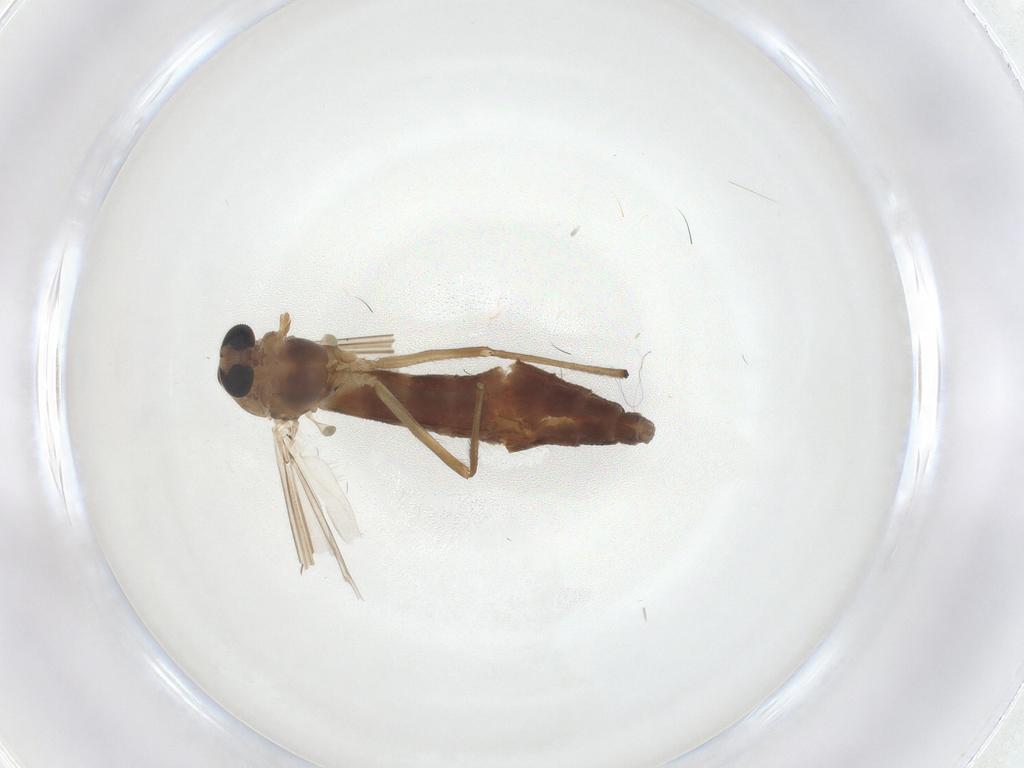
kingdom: Animalia
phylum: Arthropoda
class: Insecta
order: Diptera
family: Chironomidae
